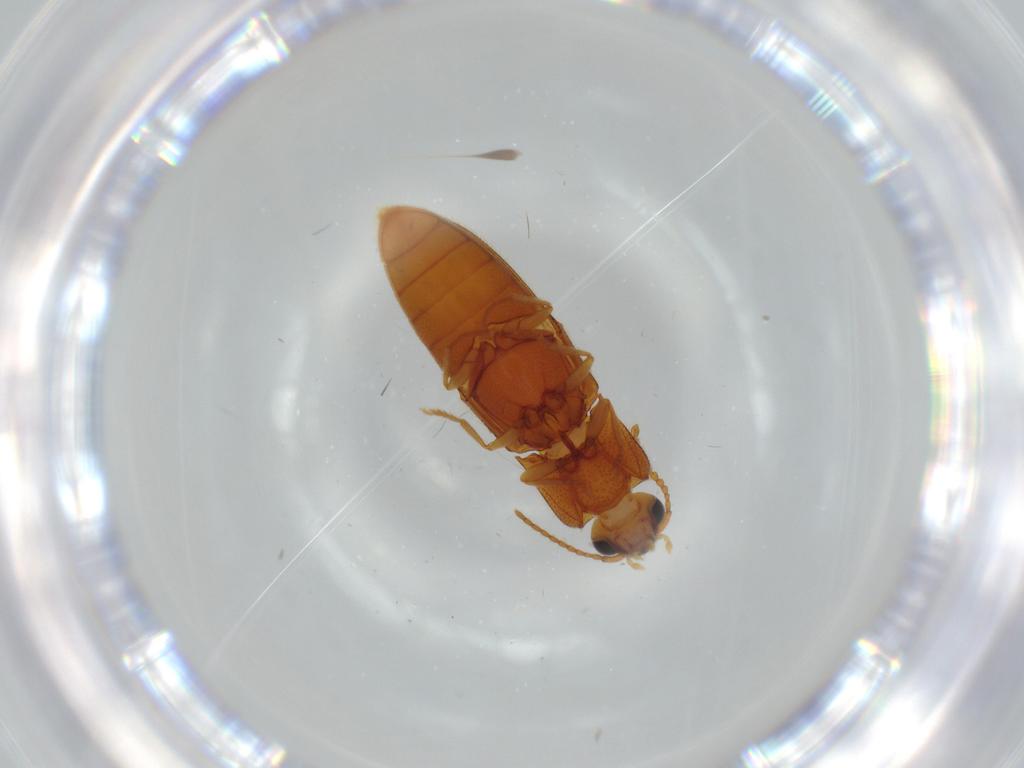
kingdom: Animalia
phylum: Arthropoda
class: Insecta
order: Coleoptera
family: Elateridae
